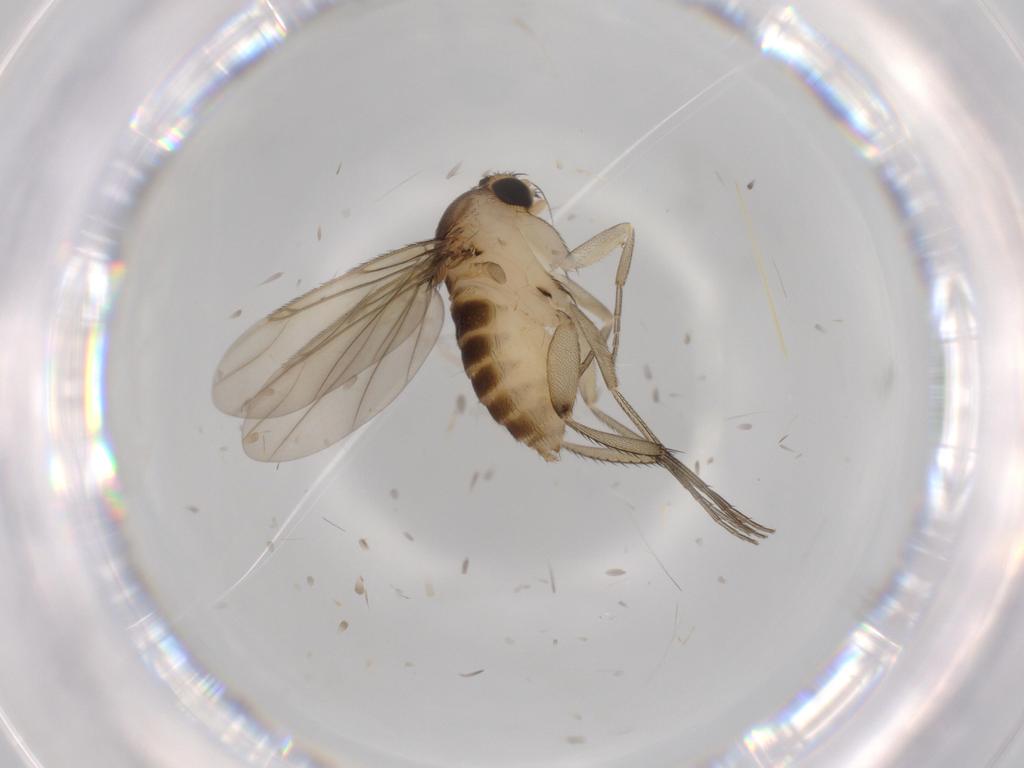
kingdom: Animalia
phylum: Arthropoda
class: Insecta
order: Diptera
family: Phoridae
